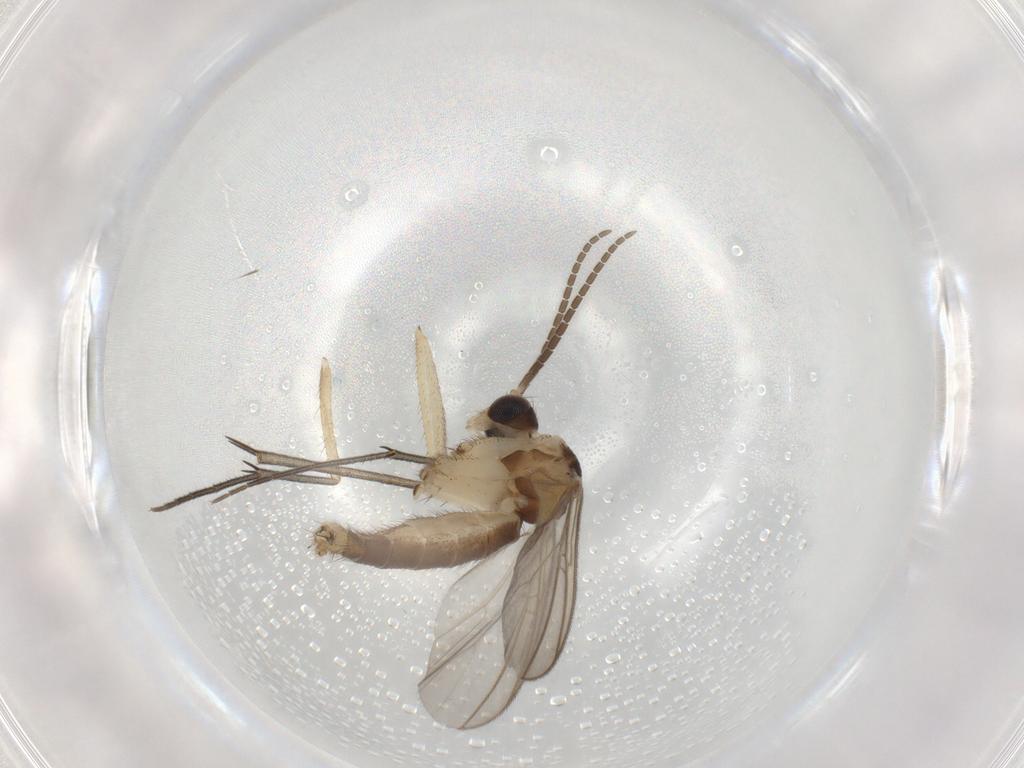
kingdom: Animalia
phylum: Arthropoda
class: Insecta
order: Diptera
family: Mycetophilidae
